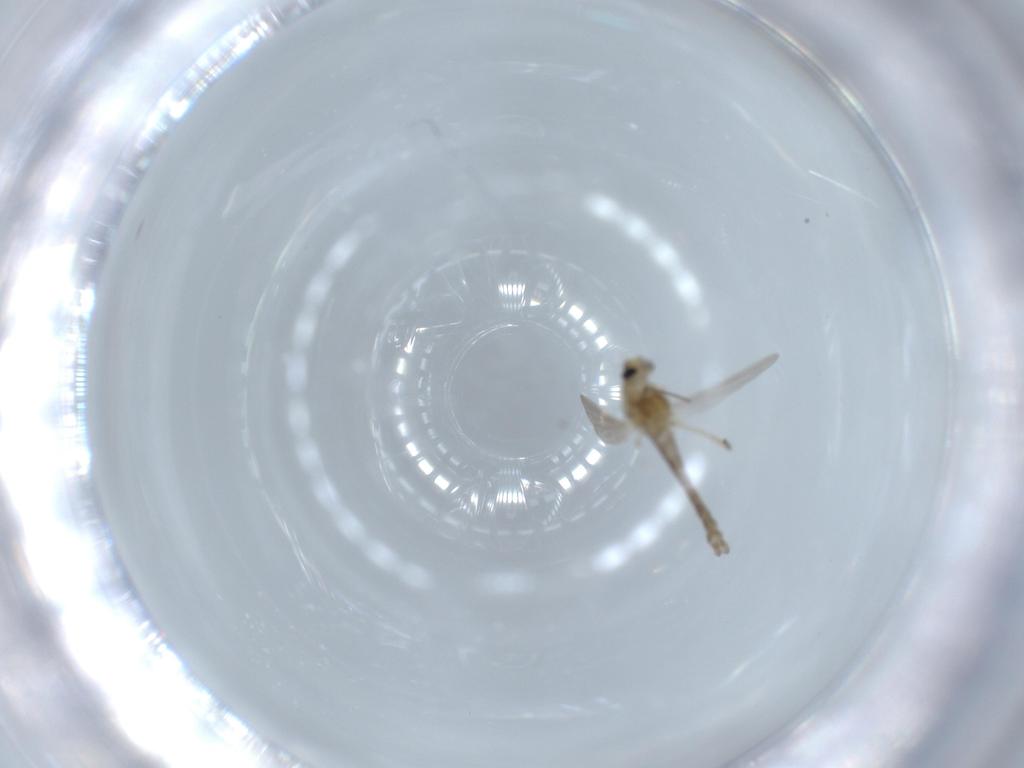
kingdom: Animalia
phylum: Arthropoda
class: Insecta
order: Diptera
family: Chironomidae
